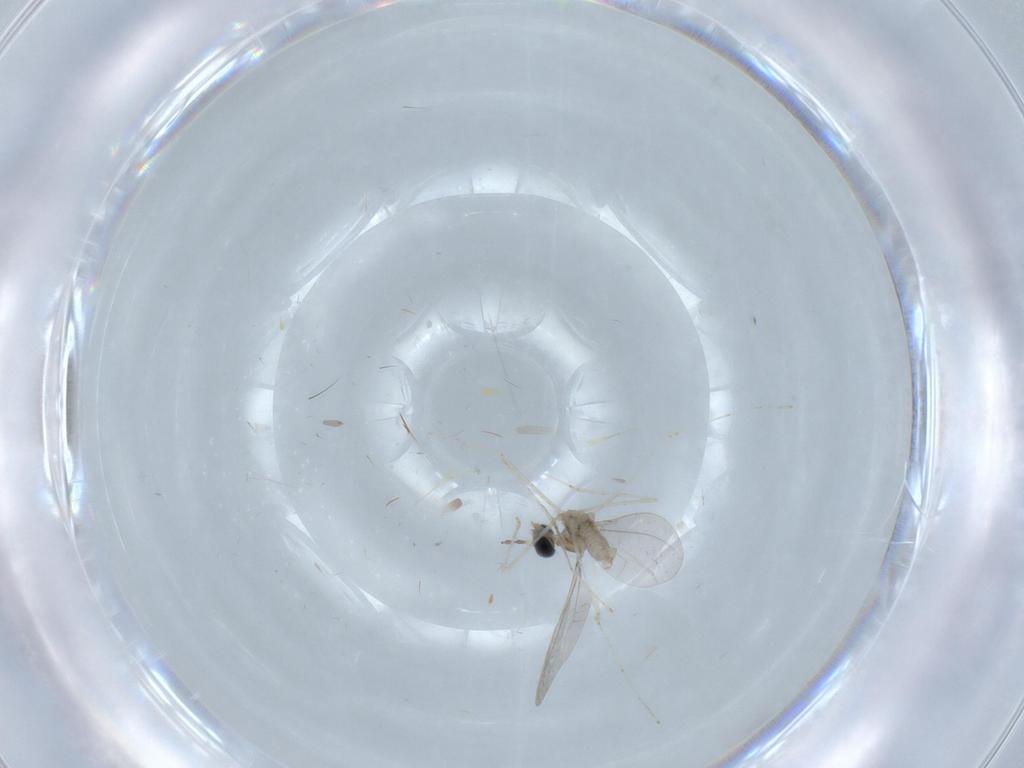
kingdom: Animalia
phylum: Arthropoda
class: Insecta
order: Diptera
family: Cecidomyiidae
